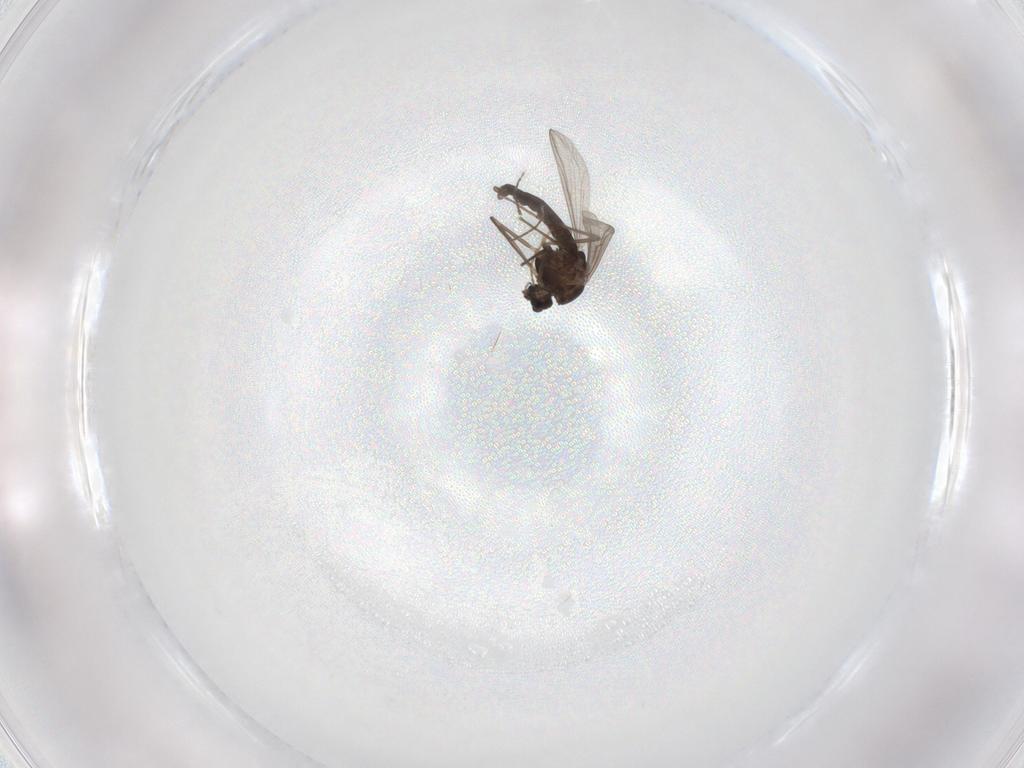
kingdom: Animalia
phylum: Arthropoda
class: Insecta
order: Diptera
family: Chironomidae
